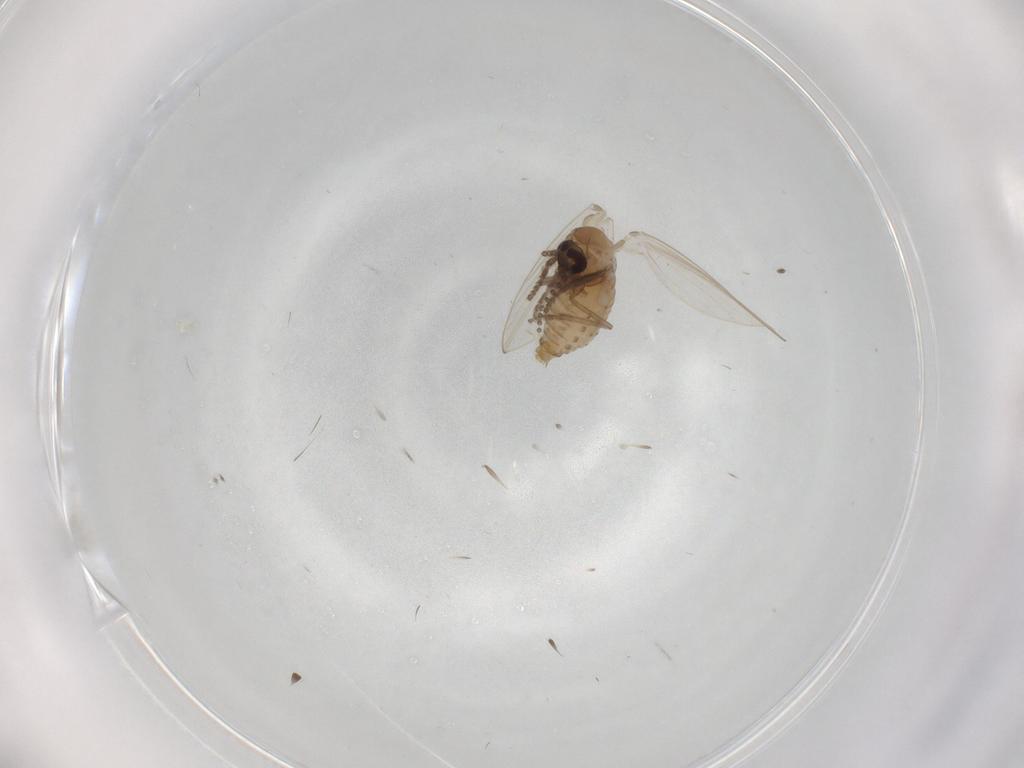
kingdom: Animalia
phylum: Arthropoda
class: Insecta
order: Diptera
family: Psychodidae
